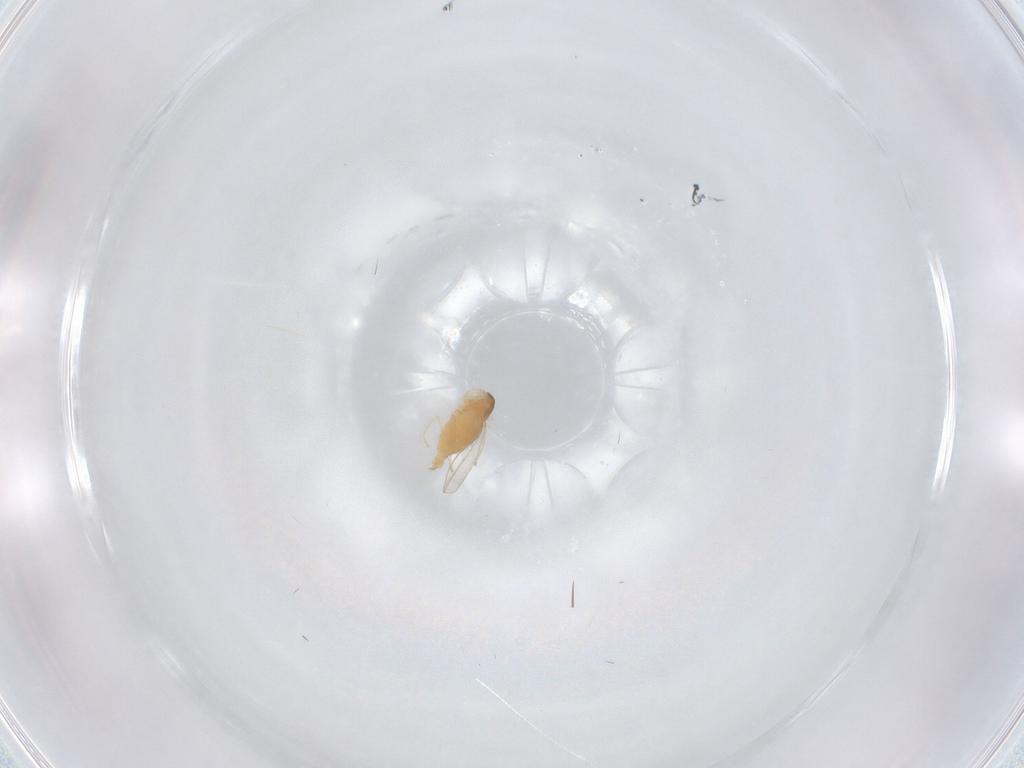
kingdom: Animalia
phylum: Arthropoda
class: Insecta
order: Diptera
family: Cecidomyiidae
